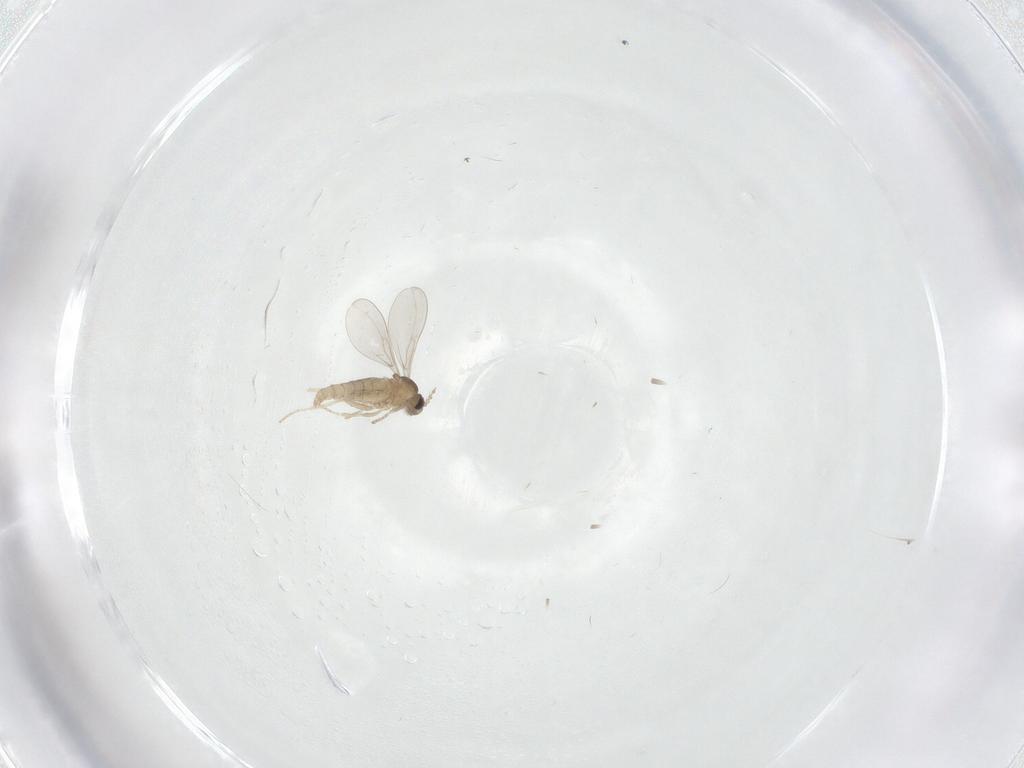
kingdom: Animalia
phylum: Arthropoda
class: Insecta
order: Diptera
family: Cecidomyiidae
